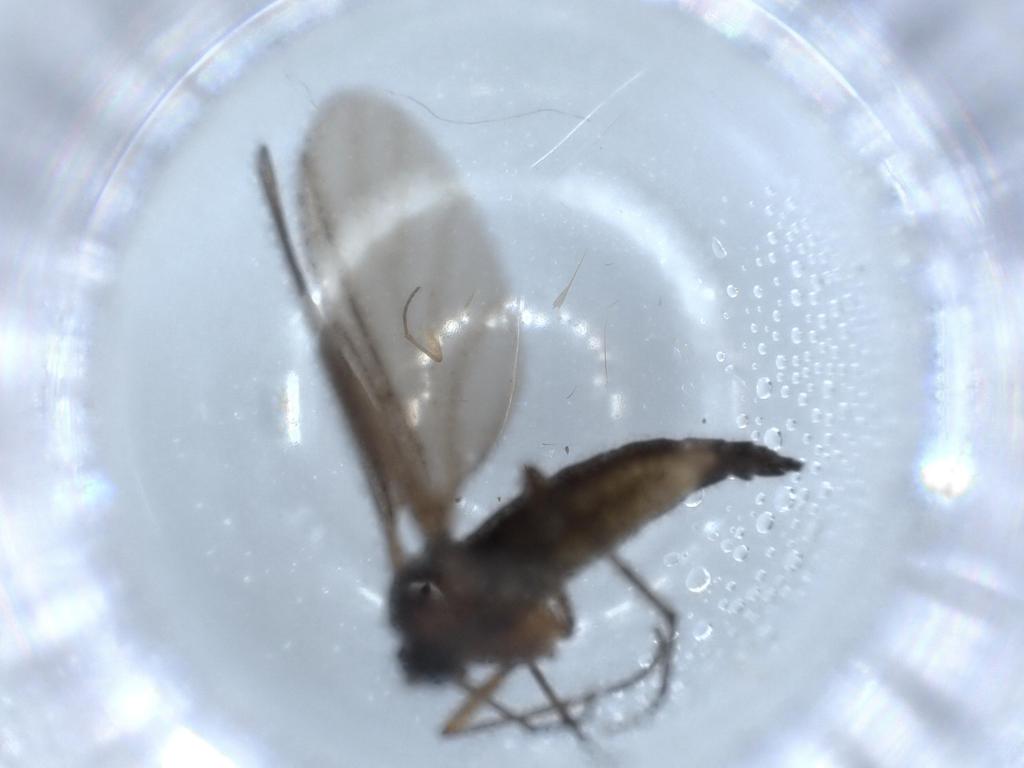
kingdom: Animalia
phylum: Arthropoda
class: Insecta
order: Diptera
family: Sciaridae
